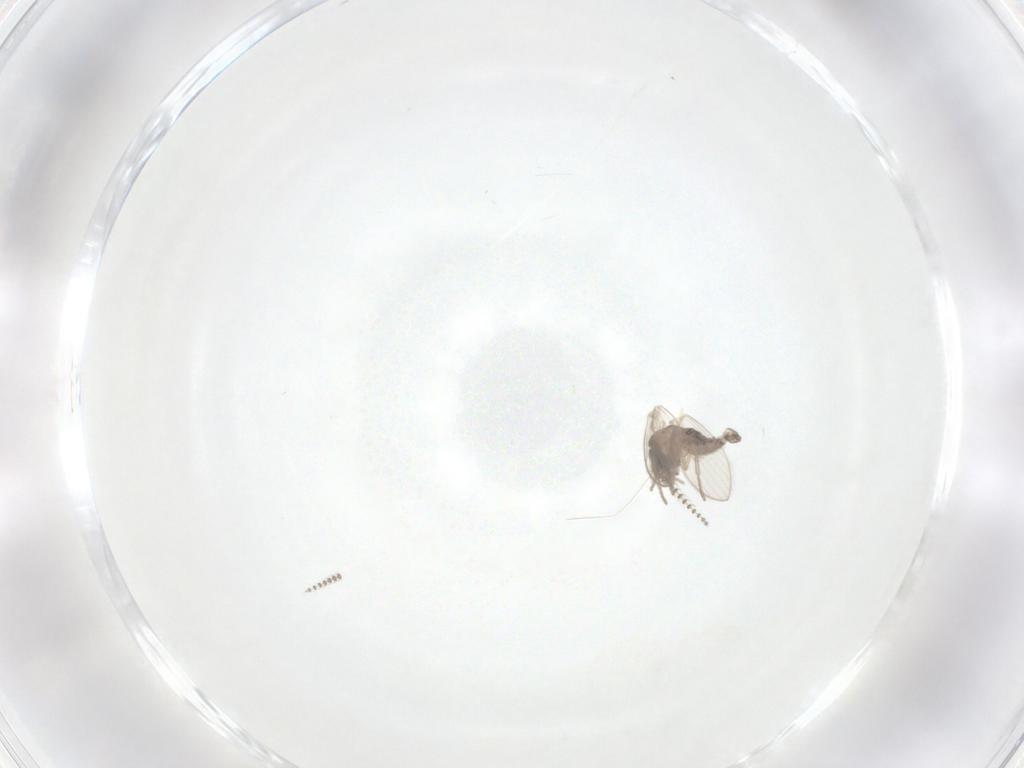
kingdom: Animalia
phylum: Arthropoda
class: Insecta
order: Diptera
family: Psychodidae
